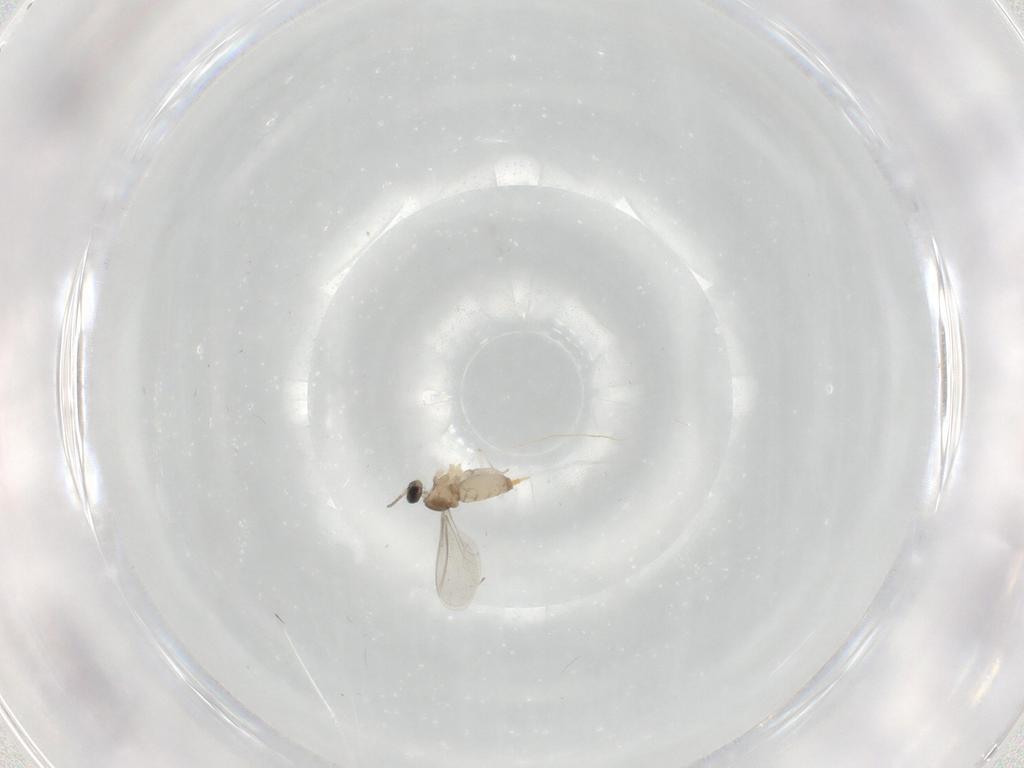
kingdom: Animalia
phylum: Arthropoda
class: Insecta
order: Diptera
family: Cecidomyiidae
